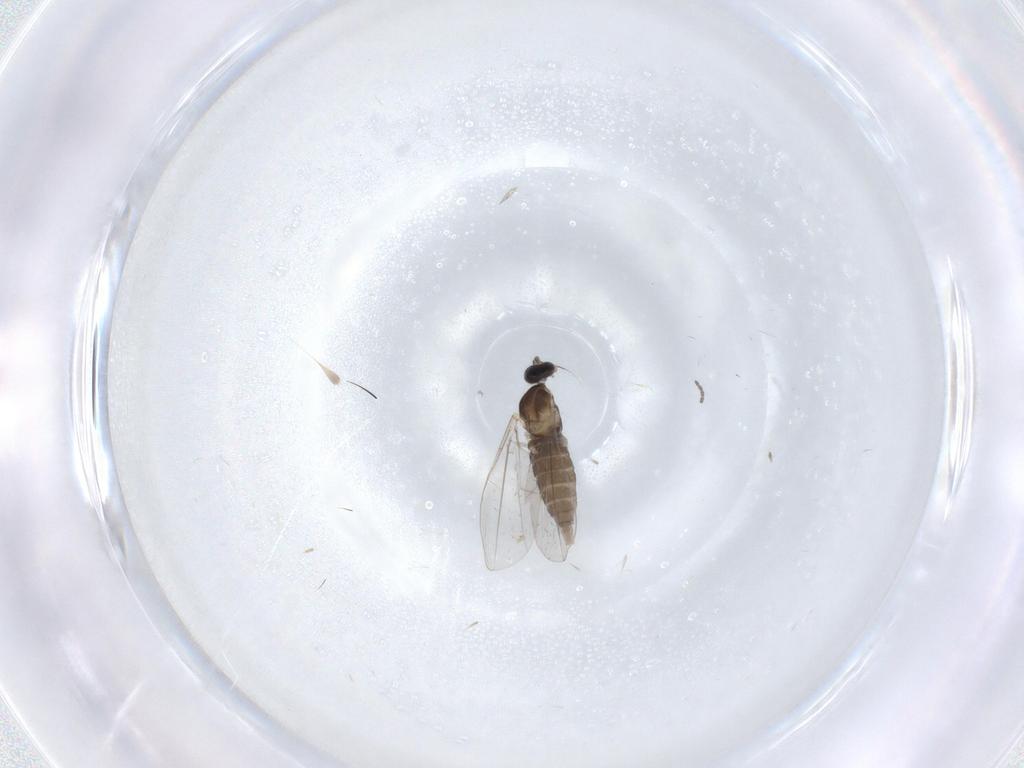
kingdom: Animalia
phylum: Arthropoda
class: Insecta
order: Diptera
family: Cecidomyiidae
